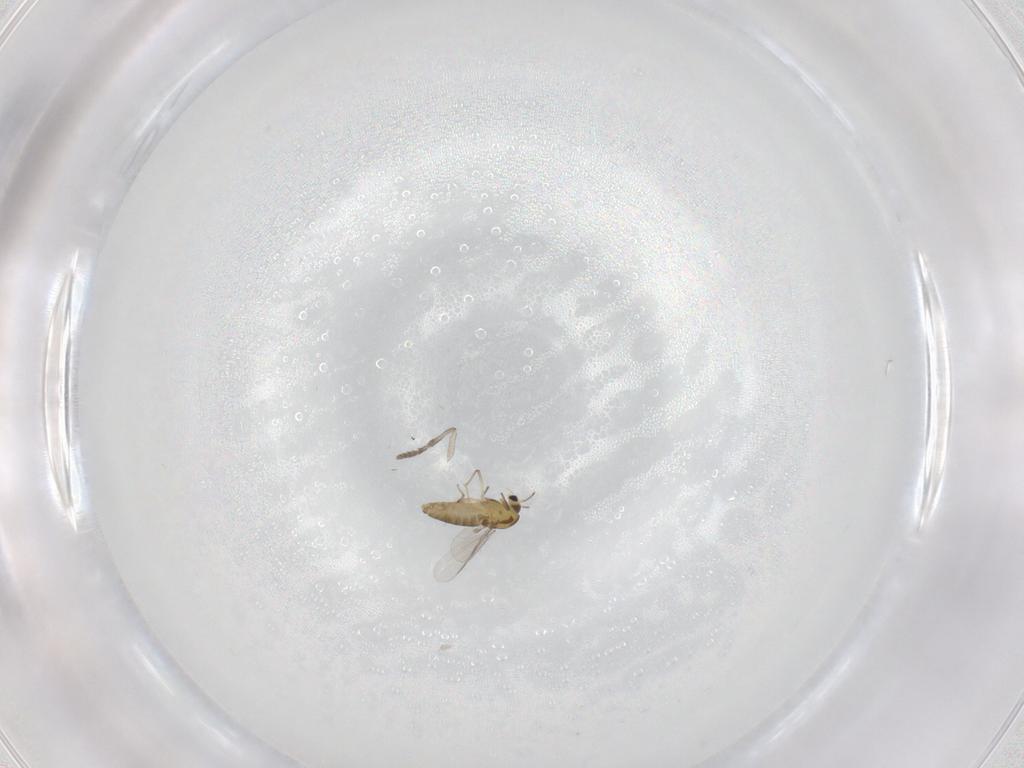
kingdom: Animalia
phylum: Arthropoda
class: Insecta
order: Diptera
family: Chironomidae
